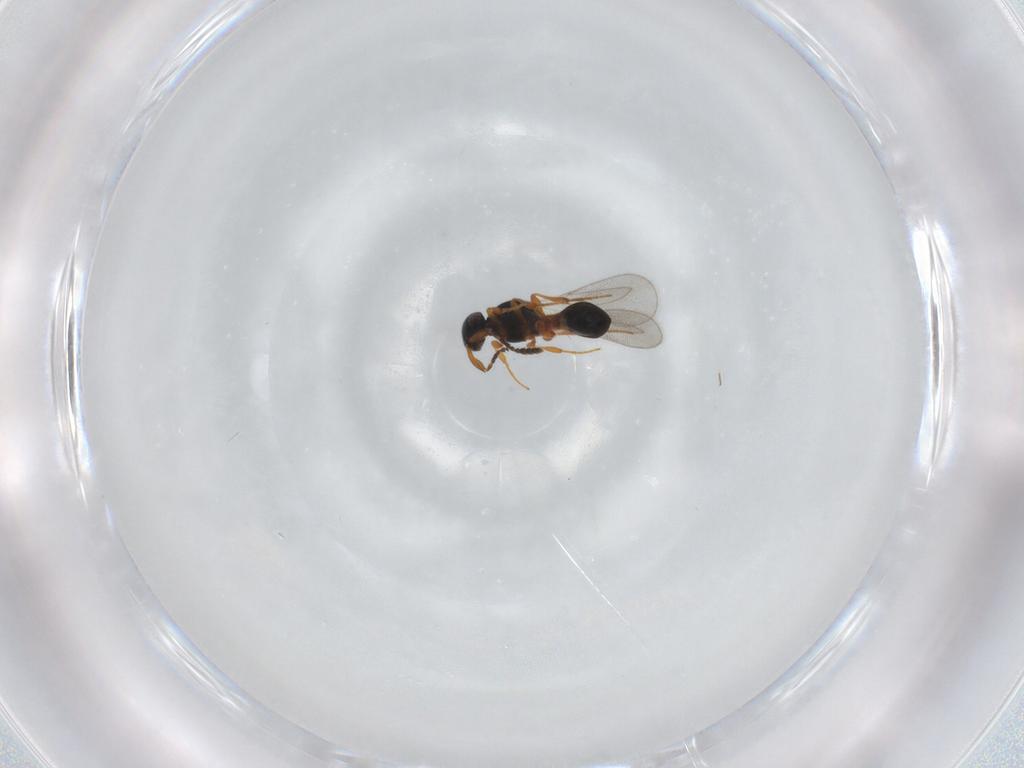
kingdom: Animalia
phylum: Arthropoda
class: Insecta
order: Hymenoptera
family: Platygastridae
